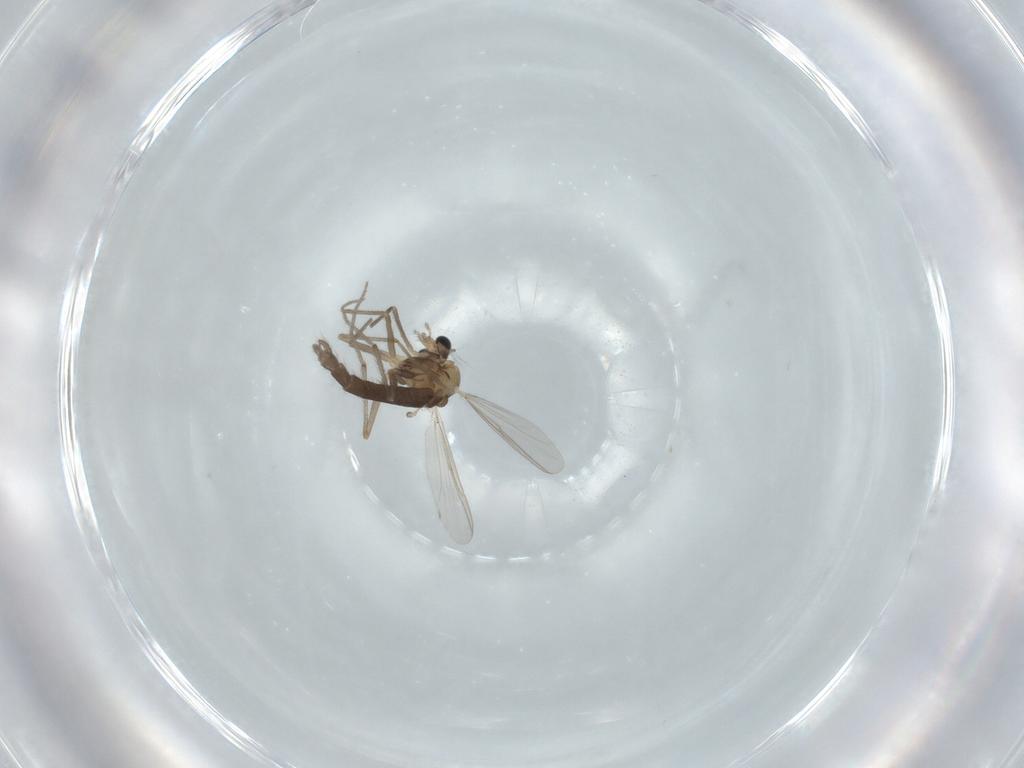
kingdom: Animalia
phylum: Arthropoda
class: Insecta
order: Diptera
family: Chironomidae
